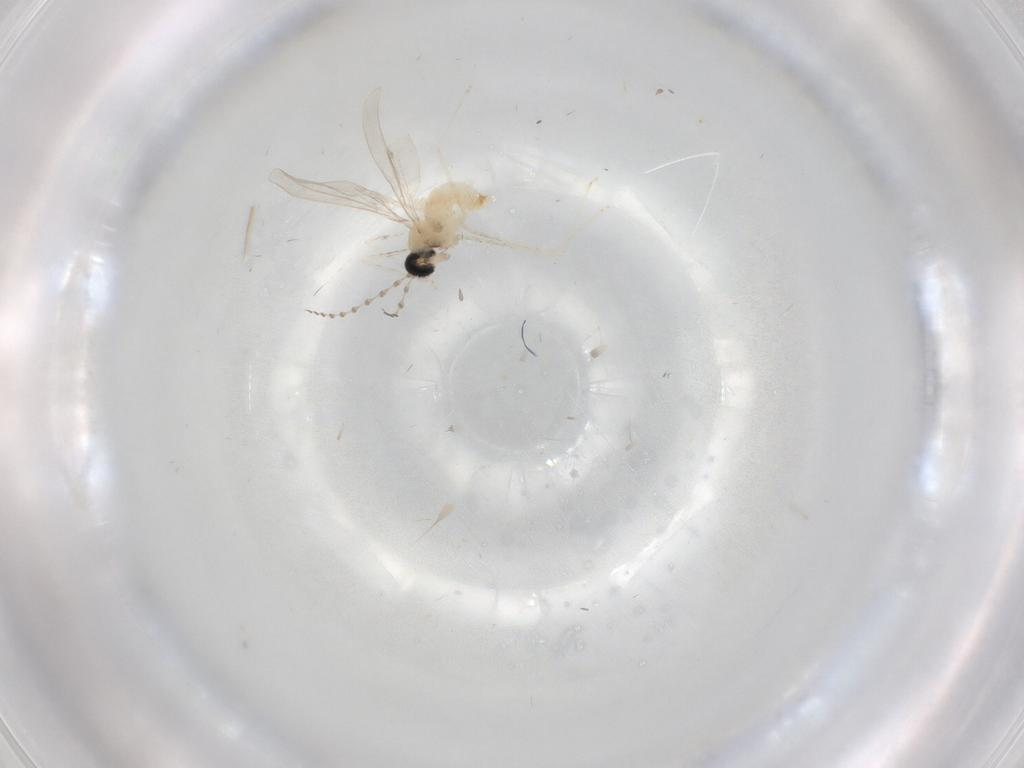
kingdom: Animalia
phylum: Arthropoda
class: Insecta
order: Diptera
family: Cecidomyiidae
